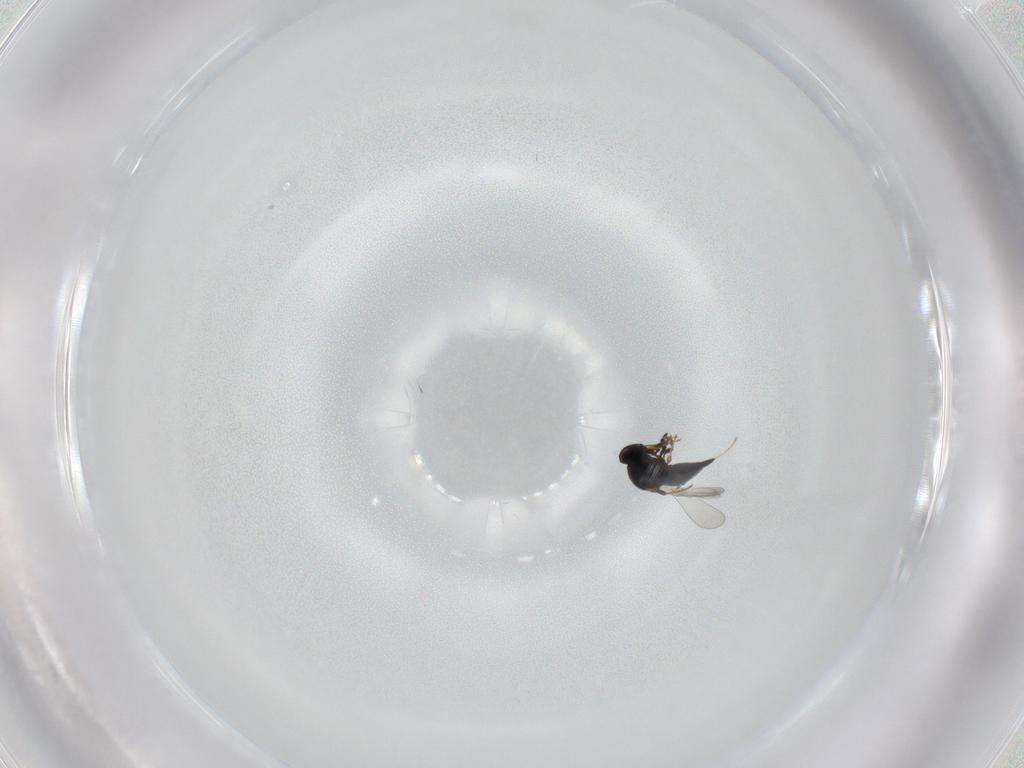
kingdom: Animalia
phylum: Arthropoda
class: Insecta
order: Hymenoptera
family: Platygastridae
